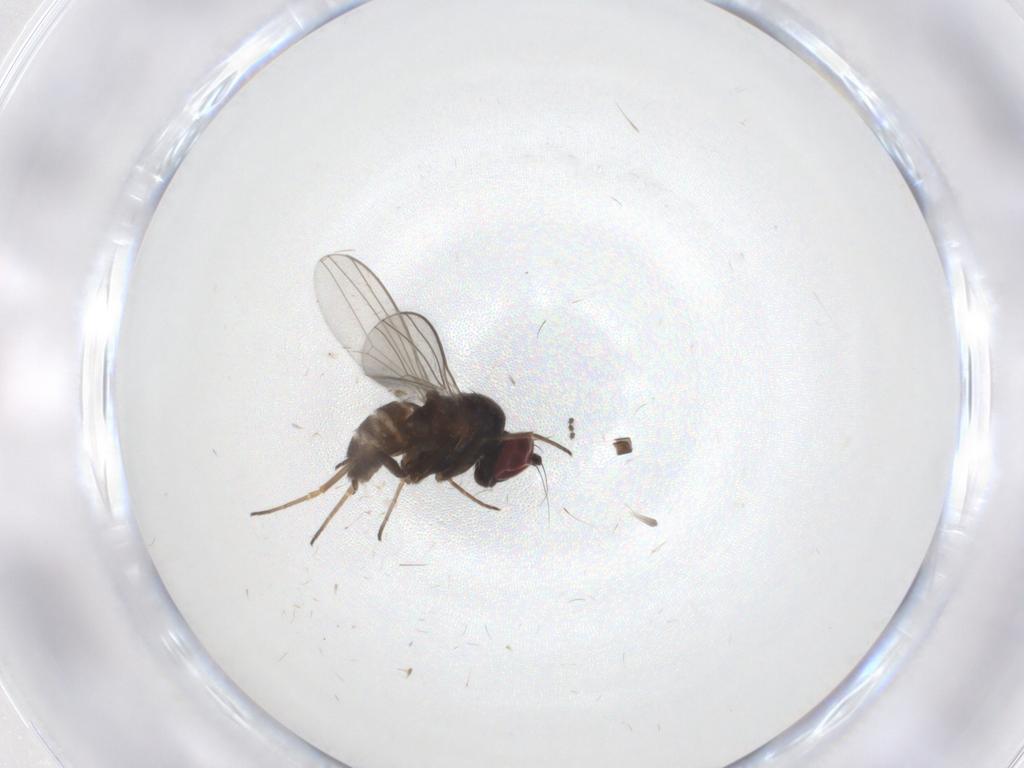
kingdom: Animalia
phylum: Arthropoda
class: Insecta
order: Diptera
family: Dolichopodidae
